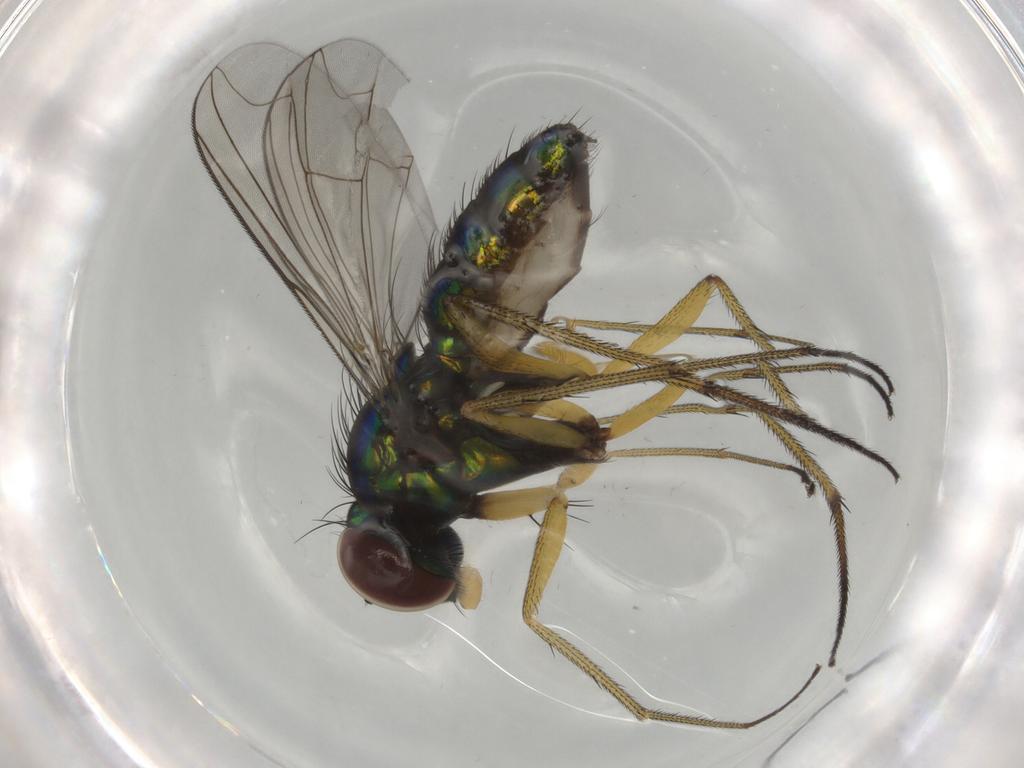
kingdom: Animalia
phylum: Arthropoda
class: Insecta
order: Diptera
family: Dolichopodidae
